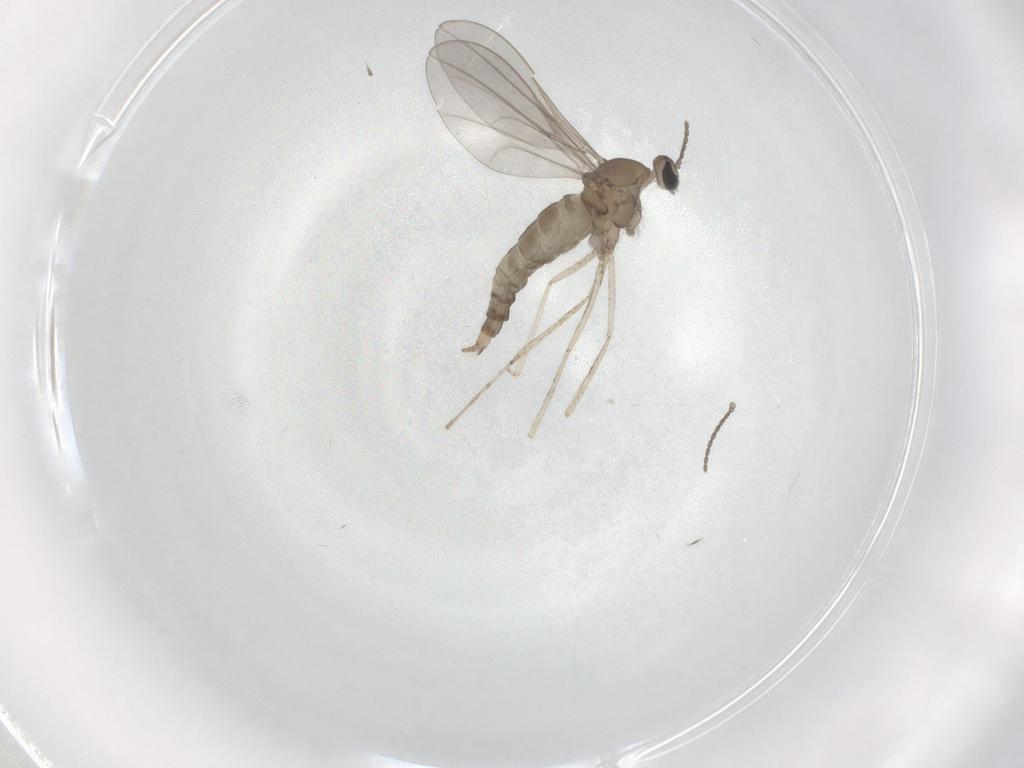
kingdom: Animalia
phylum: Arthropoda
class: Insecta
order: Diptera
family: Cecidomyiidae
